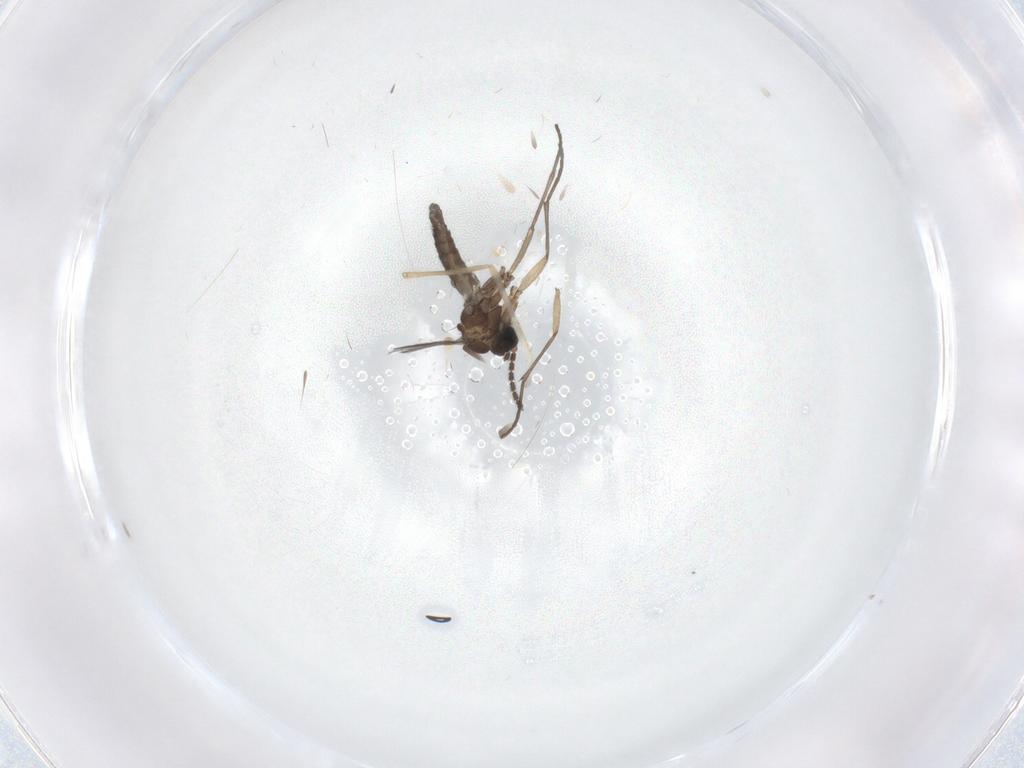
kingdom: Animalia
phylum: Arthropoda
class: Insecta
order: Diptera
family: Sciaridae
